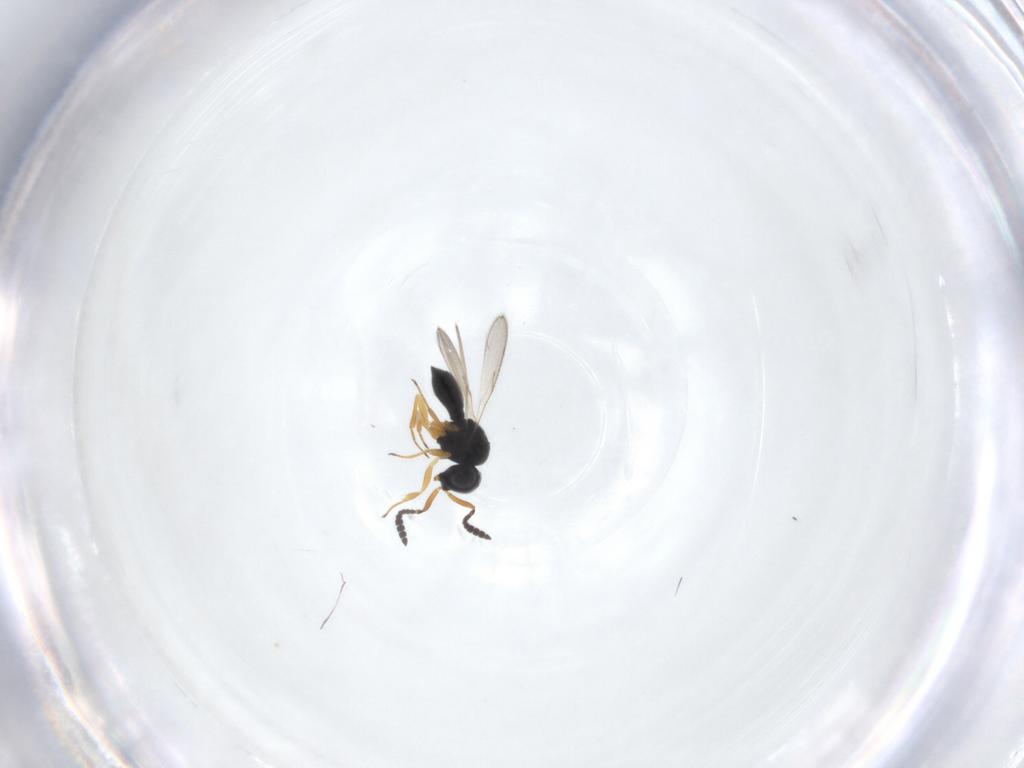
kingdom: Animalia
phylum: Arthropoda
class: Insecta
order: Hymenoptera
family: Scelionidae
